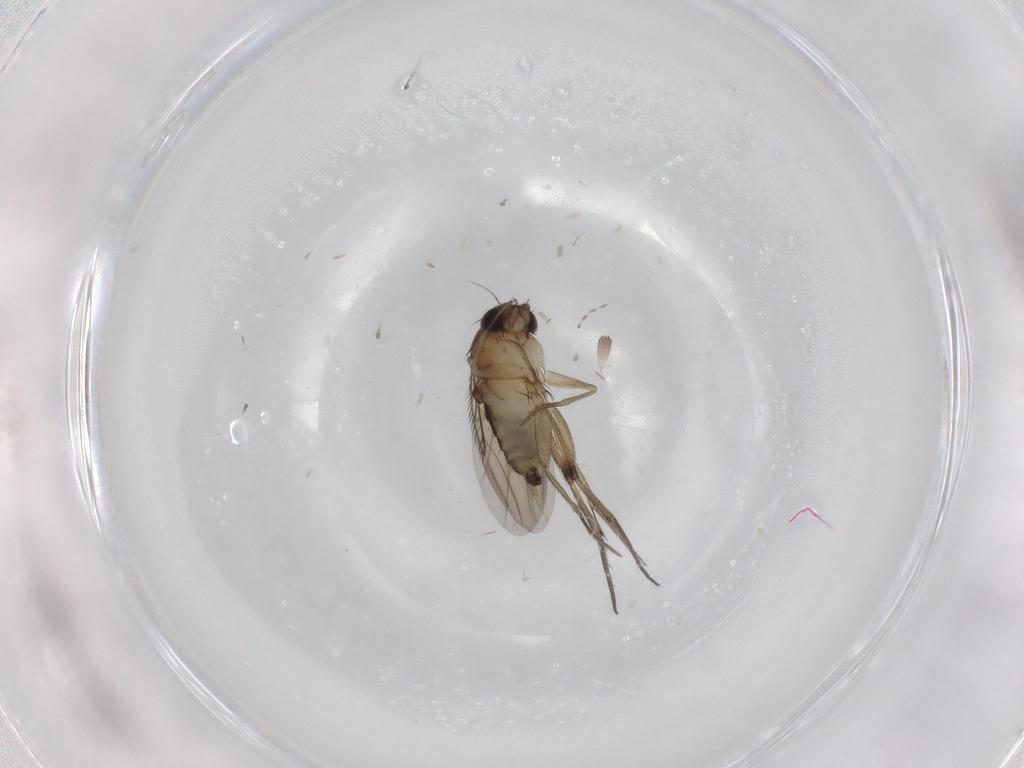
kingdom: Animalia
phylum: Arthropoda
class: Insecta
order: Diptera
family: Phoridae
